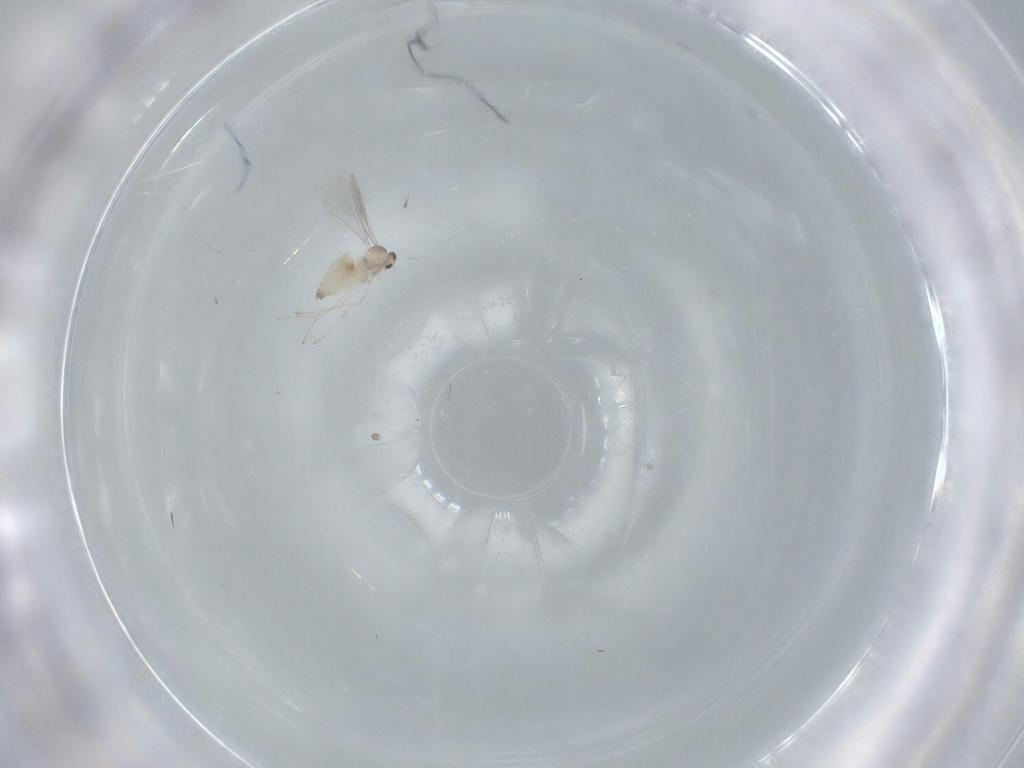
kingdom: Animalia
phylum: Arthropoda
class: Insecta
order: Diptera
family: Cecidomyiidae
